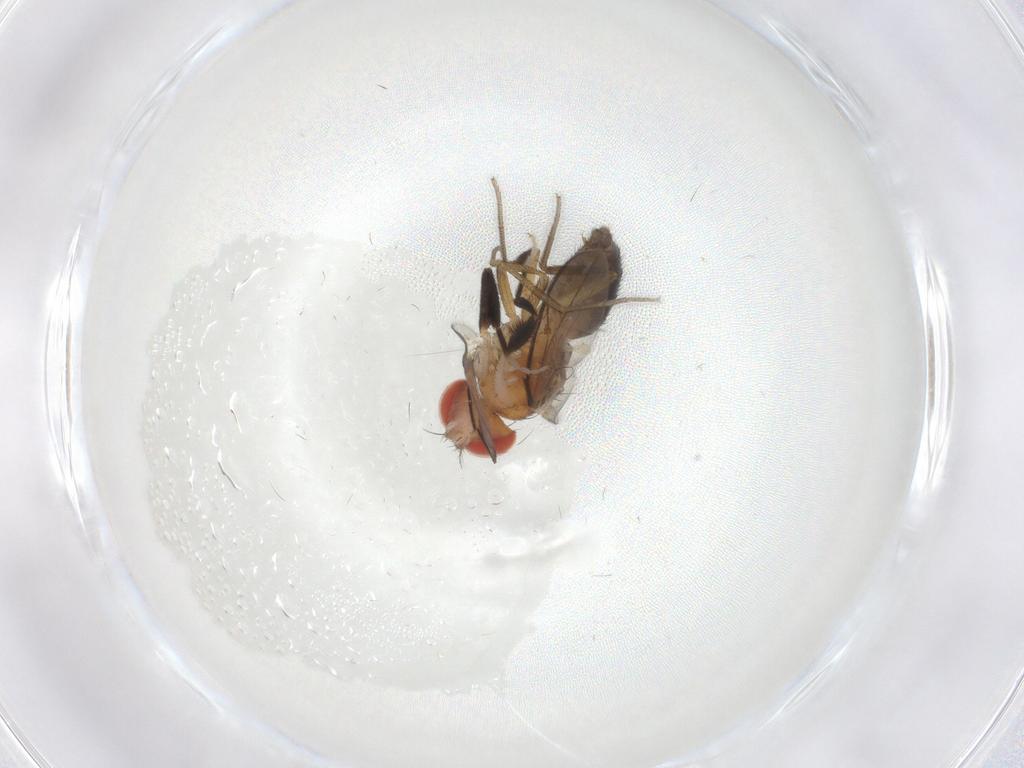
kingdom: Animalia
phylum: Arthropoda
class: Insecta
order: Diptera
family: Drosophilidae
